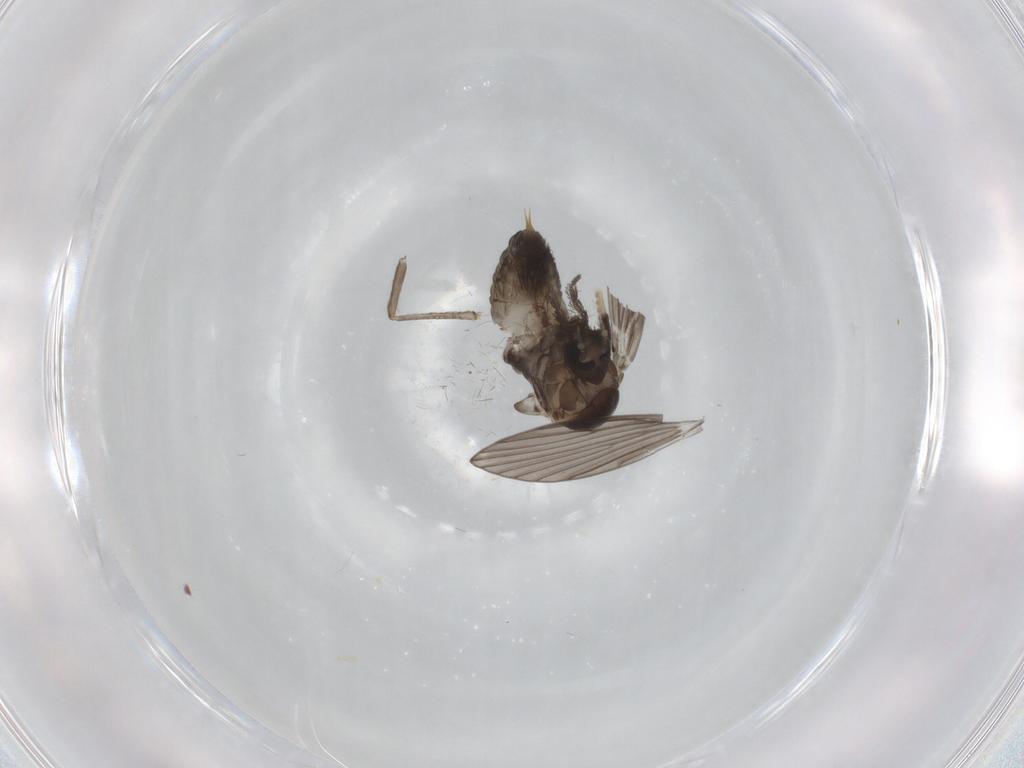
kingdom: Animalia
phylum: Arthropoda
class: Insecta
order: Diptera
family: Psychodidae
